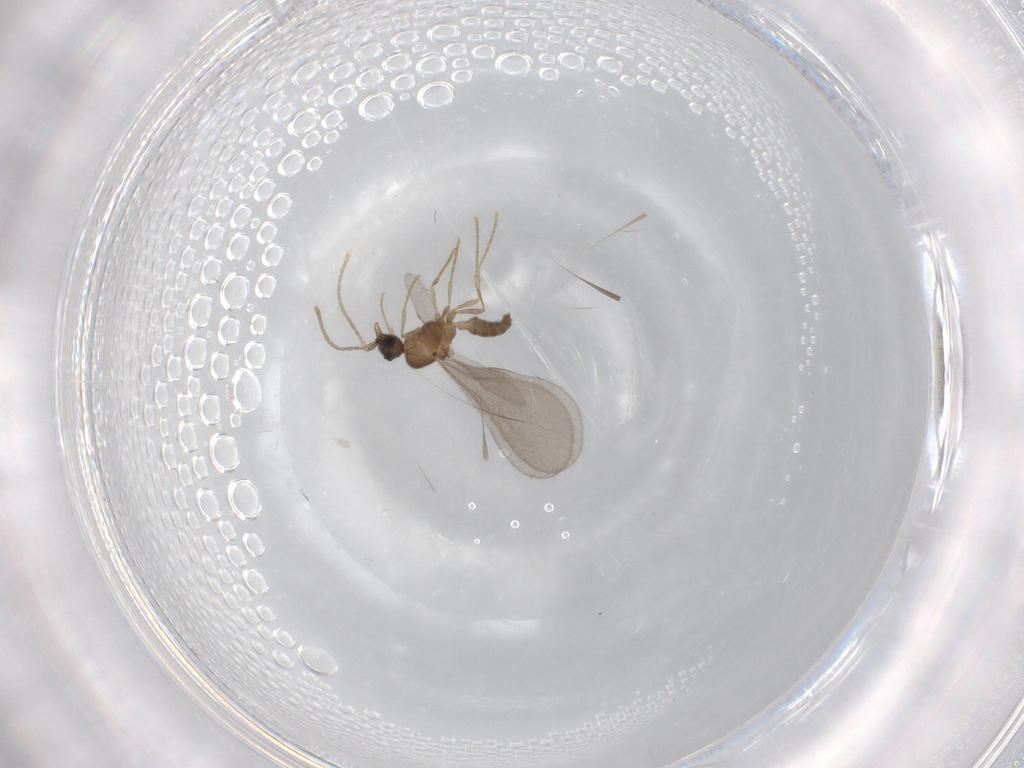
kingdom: Animalia
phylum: Arthropoda
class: Insecta
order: Hymenoptera
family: Formicidae
